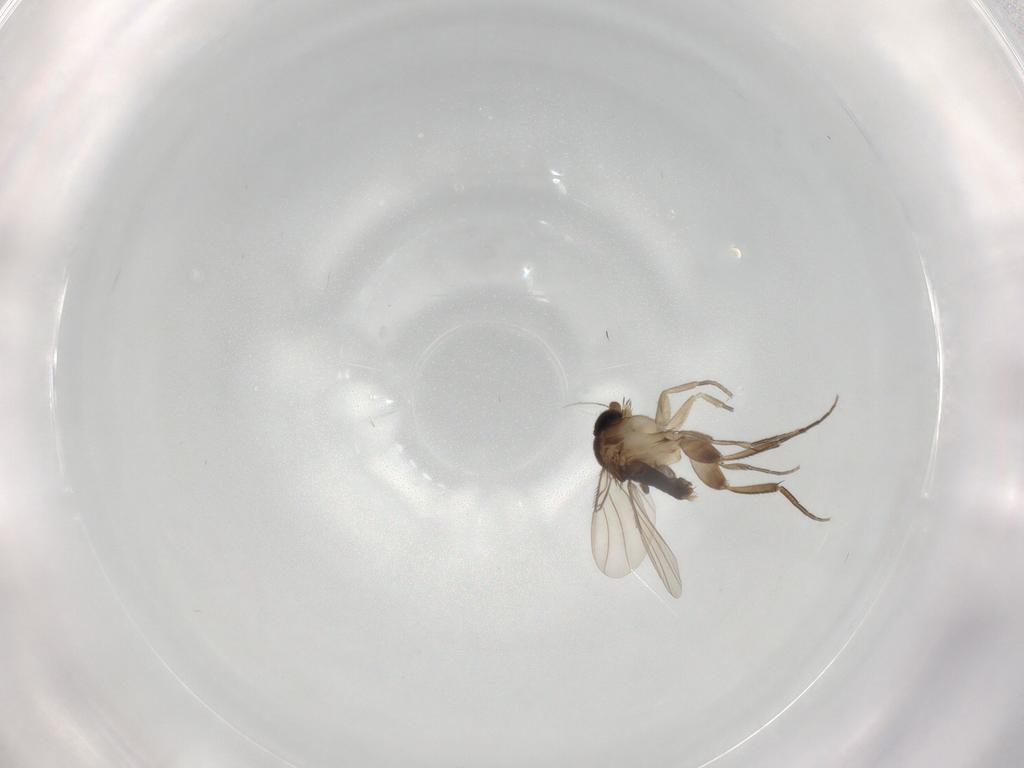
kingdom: Animalia
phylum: Arthropoda
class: Insecta
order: Diptera
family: Phoridae
